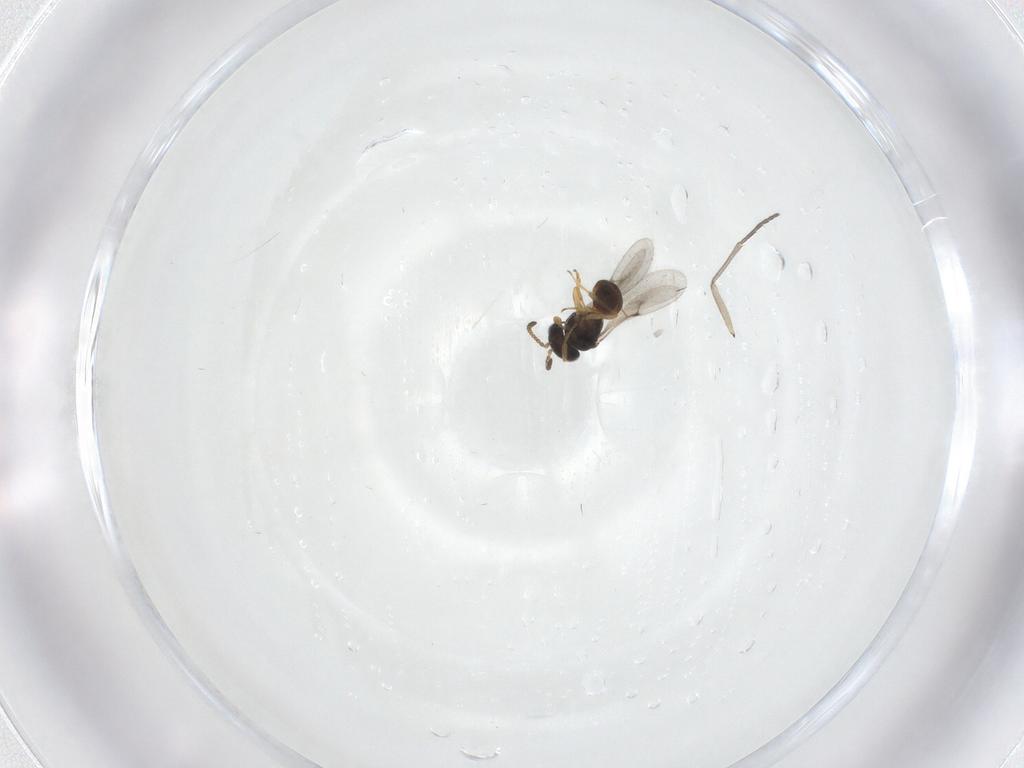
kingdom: Animalia
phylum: Arthropoda
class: Insecta
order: Hymenoptera
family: Scelionidae
